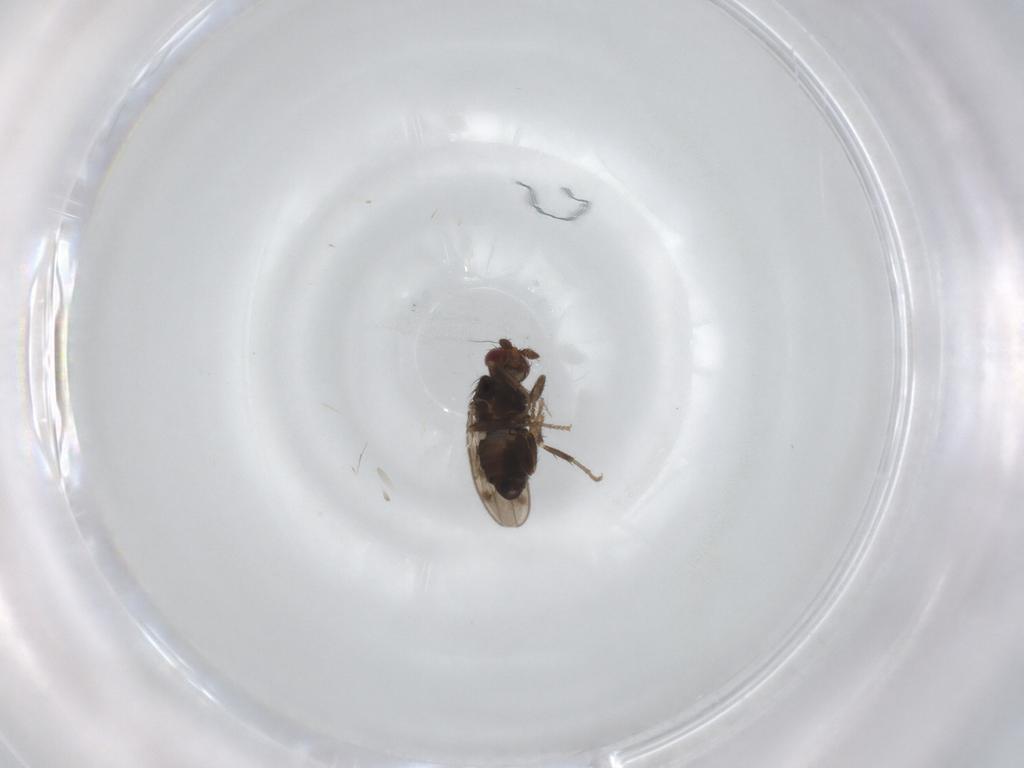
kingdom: Animalia
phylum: Arthropoda
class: Insecta
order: Diptera
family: Sphaeroceridae
